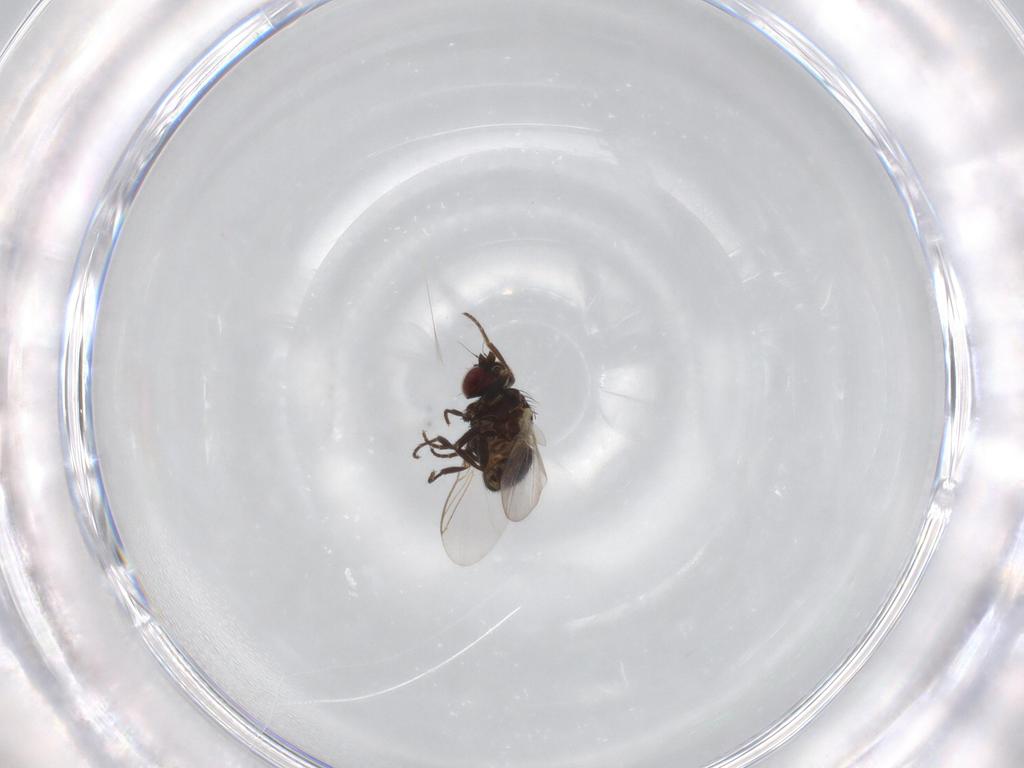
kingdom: Animalia
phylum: Arthropoda
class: Insecta
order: Diptera
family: Ceratopogonidae
